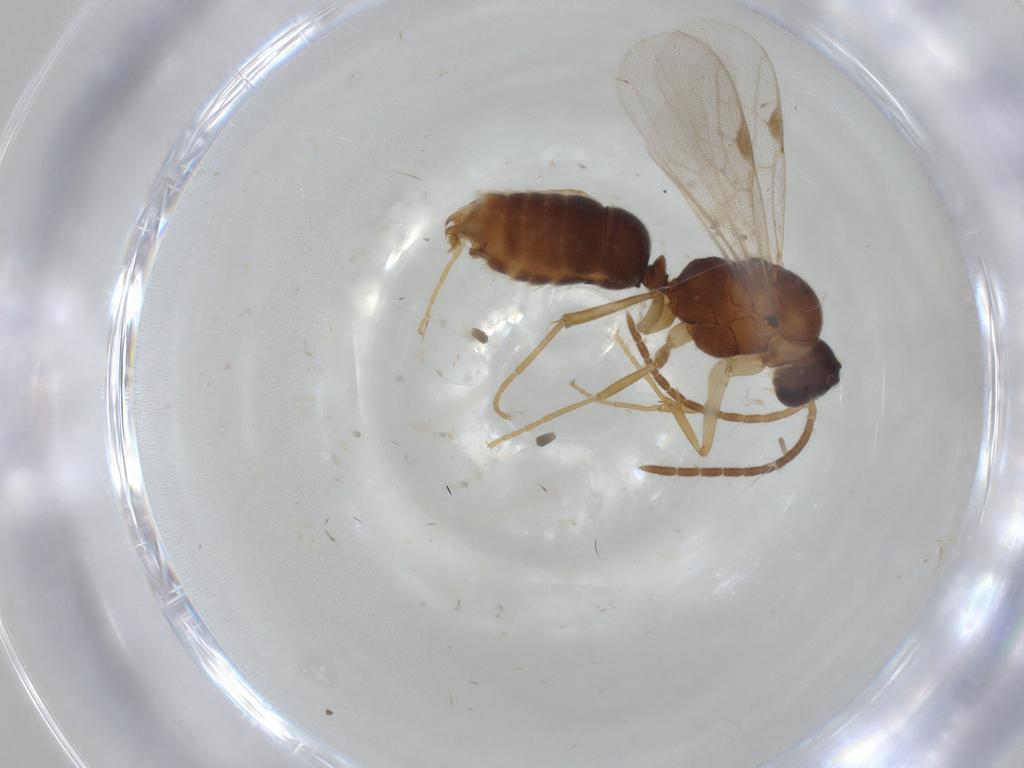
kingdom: Animalia
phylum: Arthropoda
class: Insecta
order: Hymenoptera
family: Formicidae
